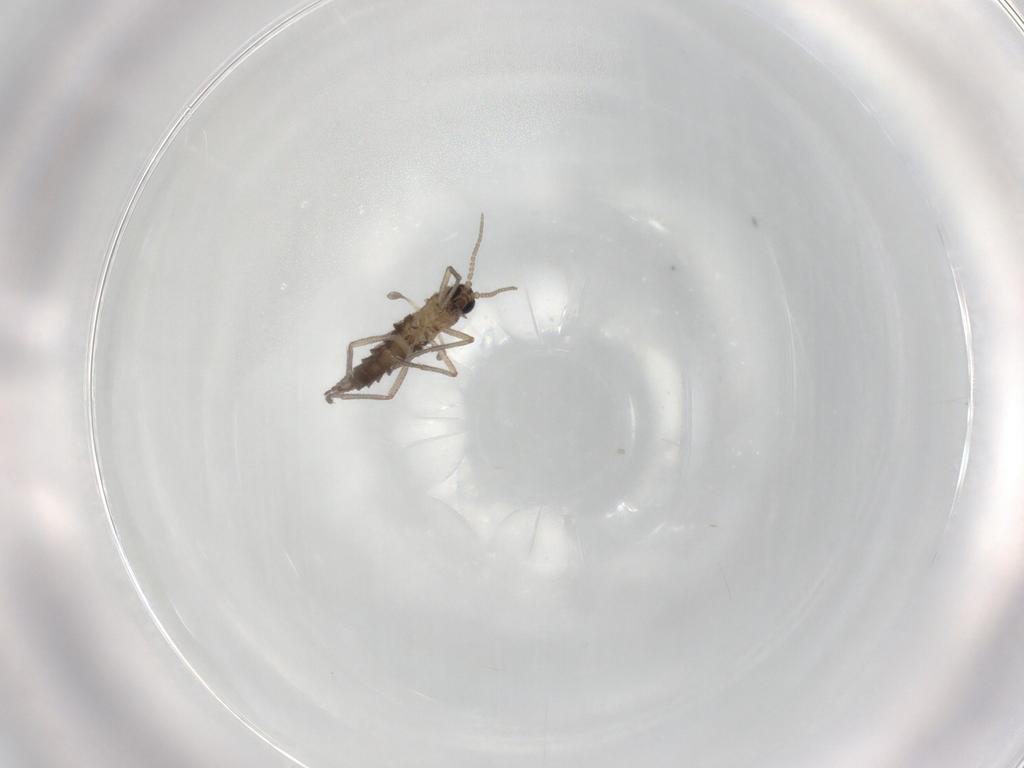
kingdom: Animalia
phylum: Arthropoda
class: Insecta
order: Diptera
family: Sciaridae
